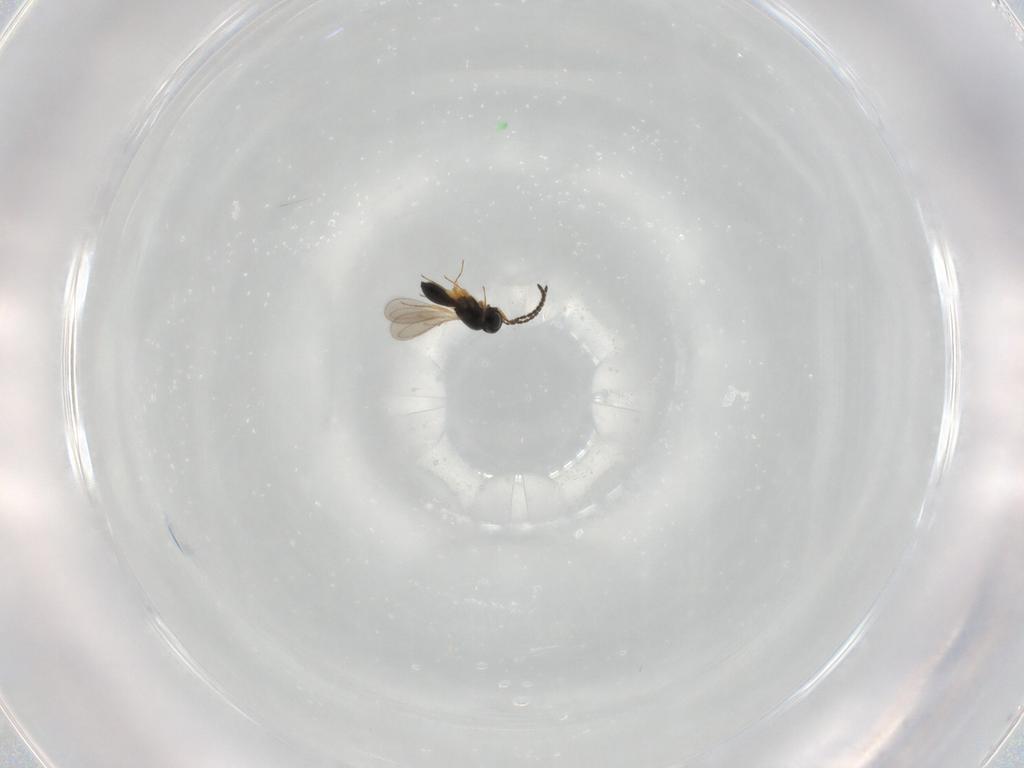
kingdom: Animalia
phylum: Arthropoda
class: Insecta
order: Hymenoptera
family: Scelionidae
